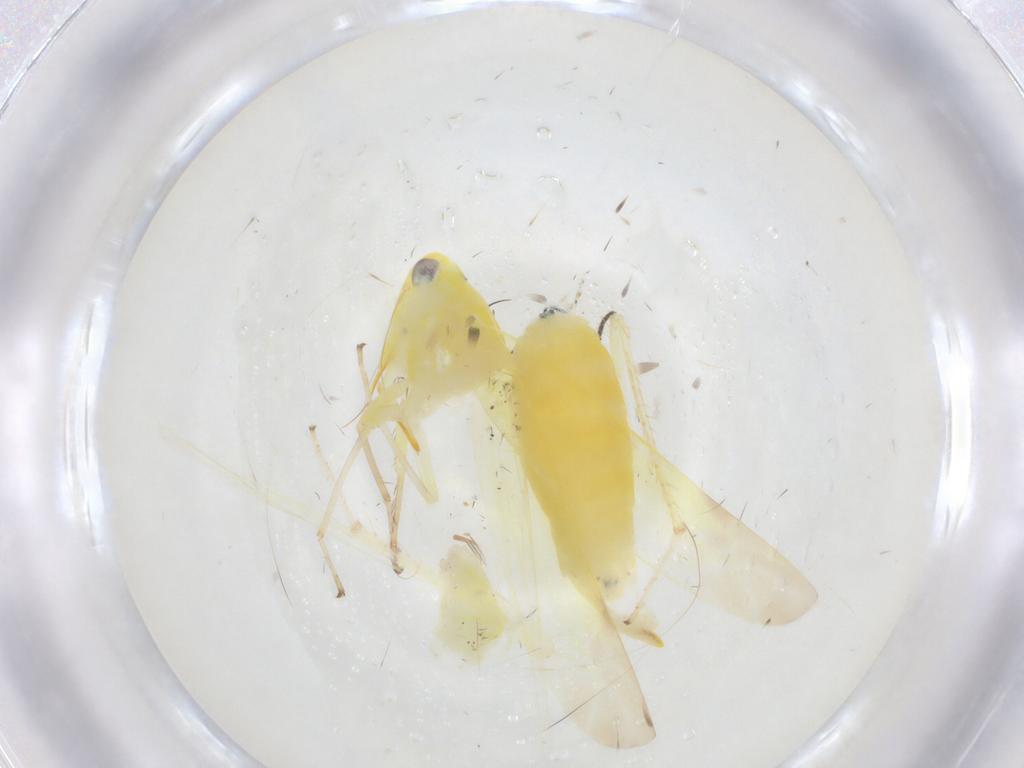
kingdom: Animalia
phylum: Arthropoda
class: Insecta
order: Hemiptera
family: Cicadellidae
